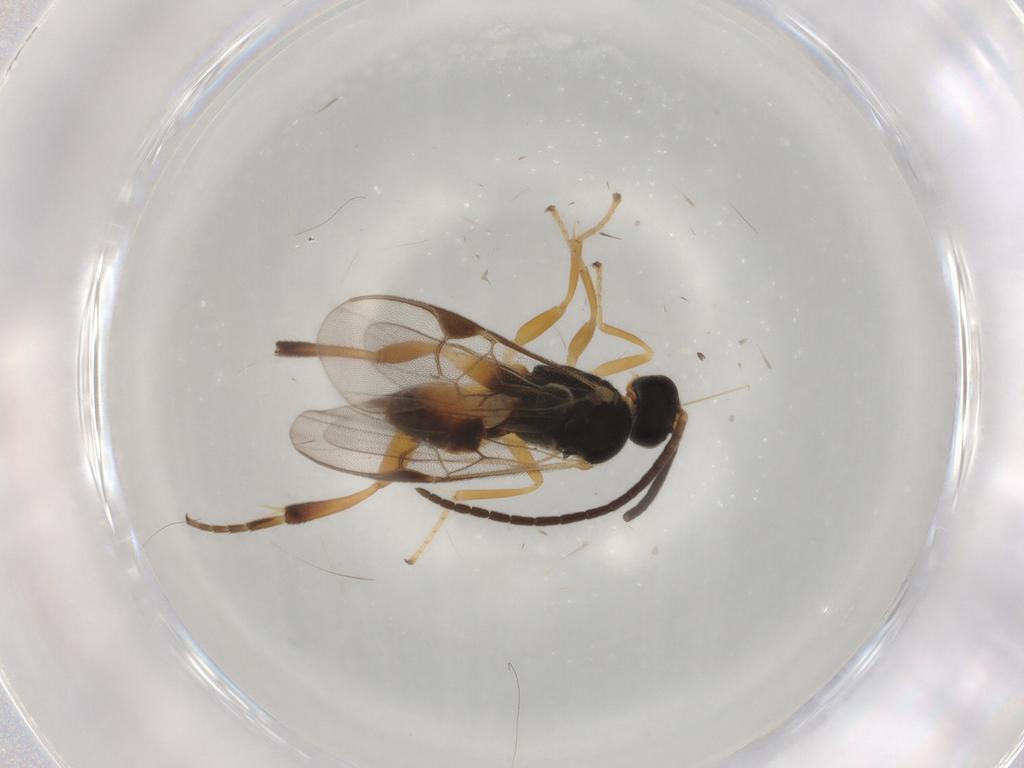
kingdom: Animalia
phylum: Arthropoda
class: Insecta
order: Hymenoptera
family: Braconidae
